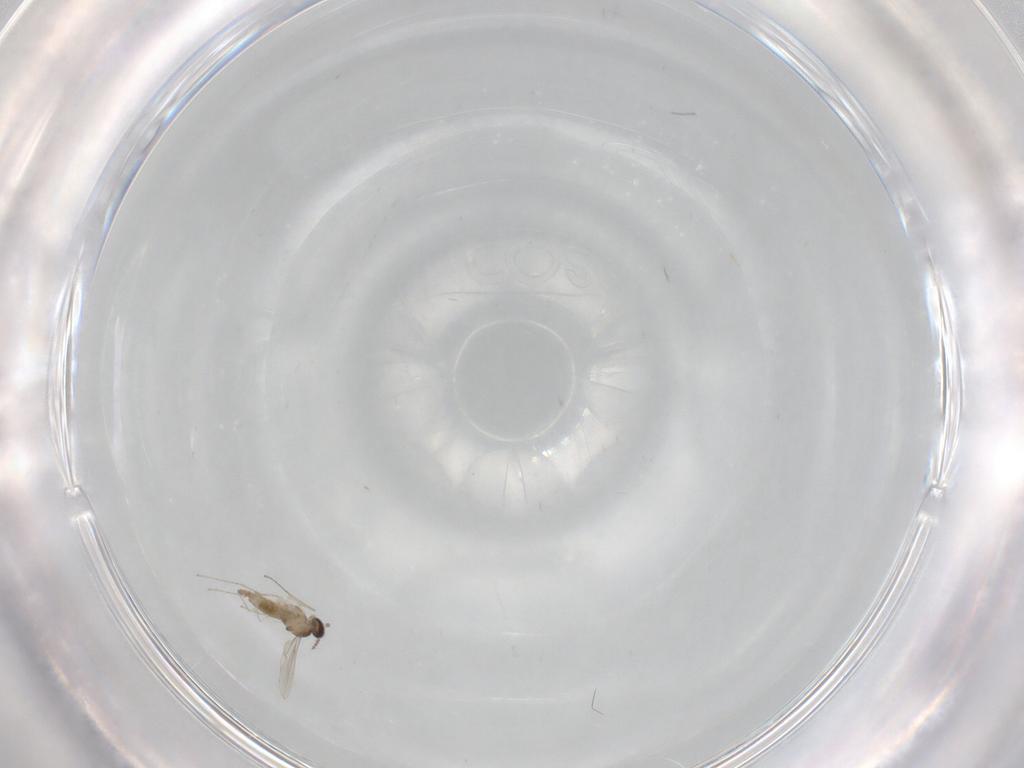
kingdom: Animalia
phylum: Arthropoda
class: Insecta
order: Diptera
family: Cecidomyiidae
